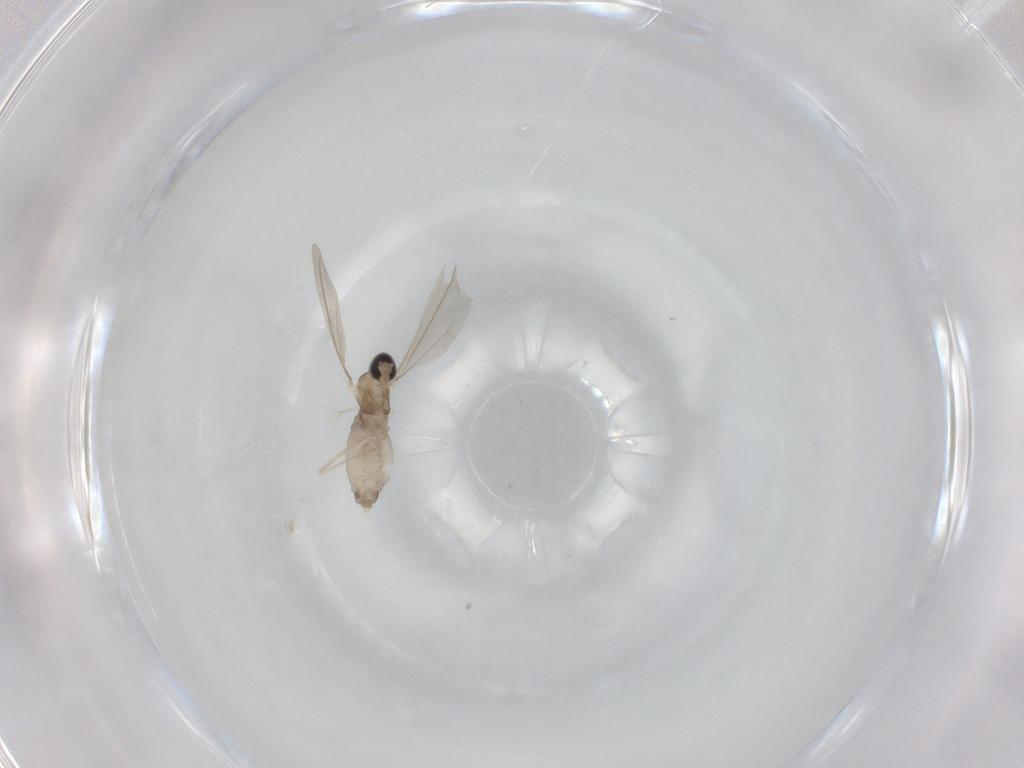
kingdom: Animalia
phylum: Arthropoda
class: Insecta
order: Diptera
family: Cecidomyiidae
